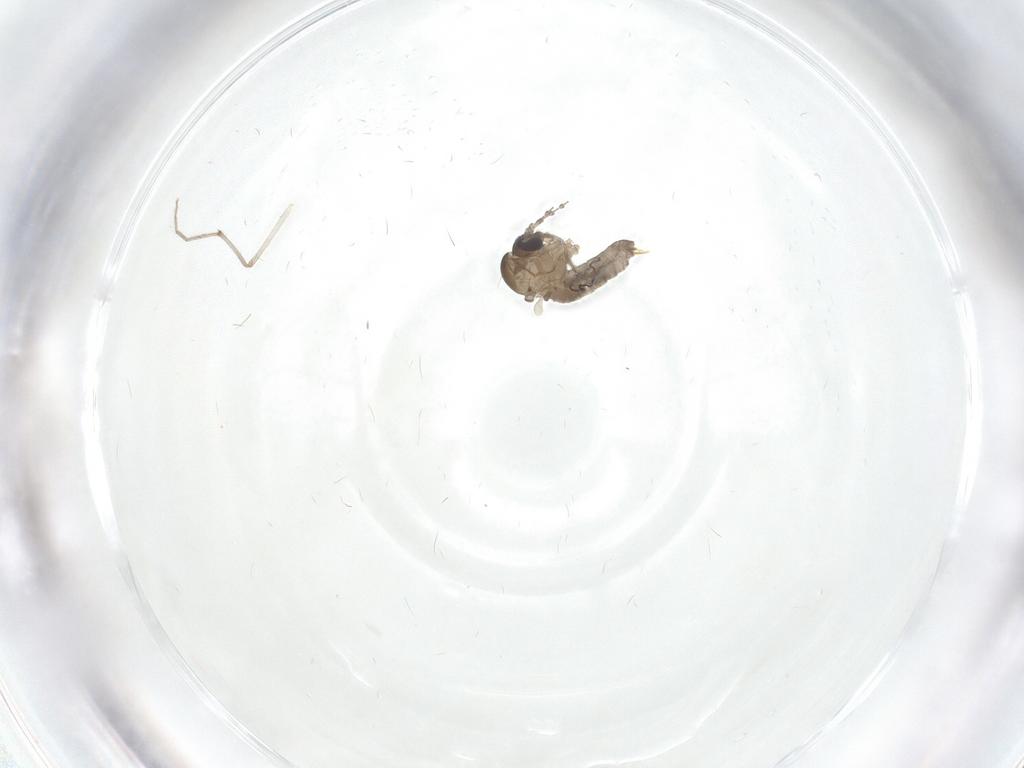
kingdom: Animalia
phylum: Arthropoda
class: Insecta
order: Diptera
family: Chironomidae
